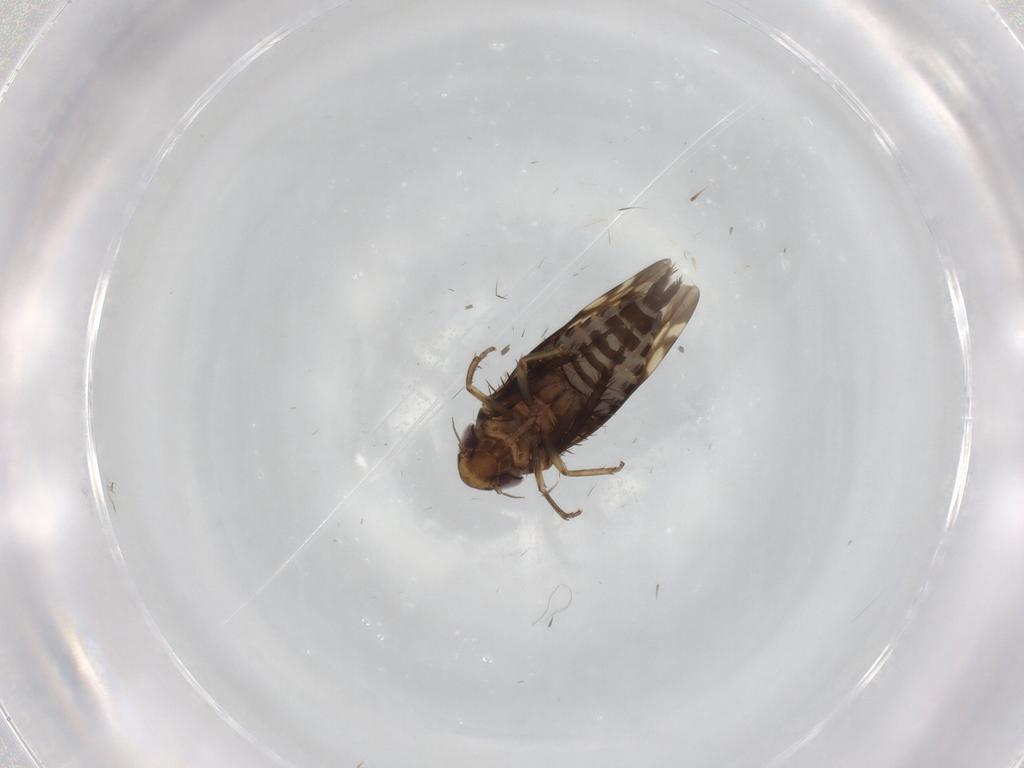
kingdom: Animalia
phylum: Arthropoda
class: Insecta
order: Hemiptera
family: Cicadellidae
